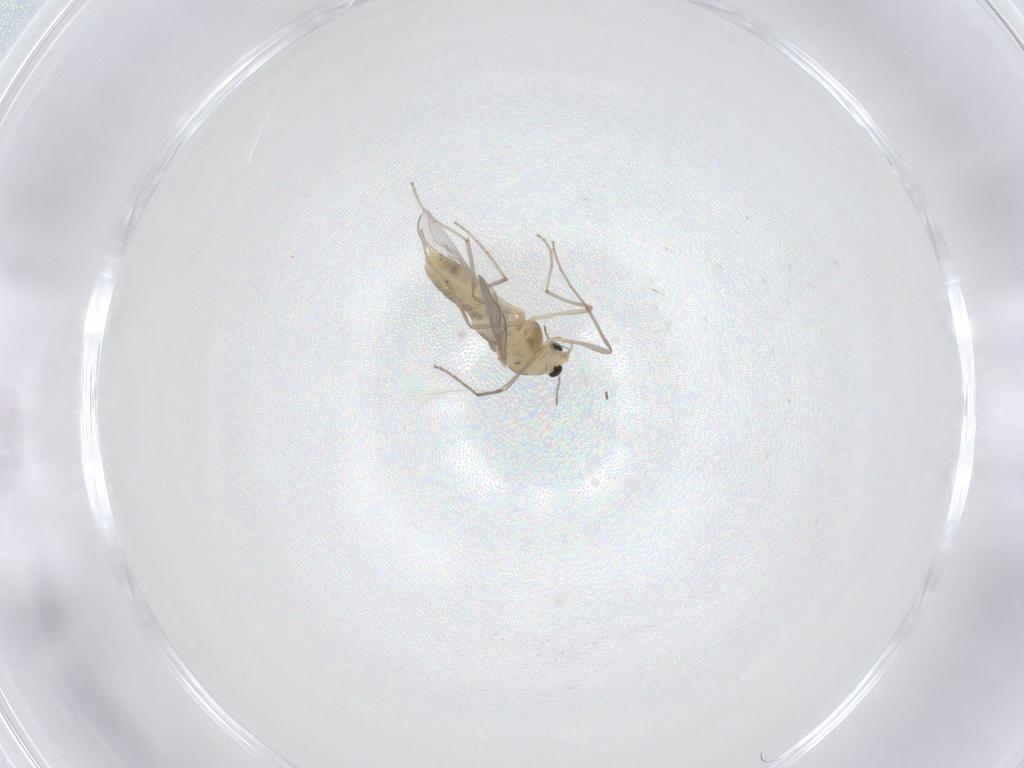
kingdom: Animalia
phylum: Arthropoda
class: Insecta
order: Diptera
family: Chironomidae
